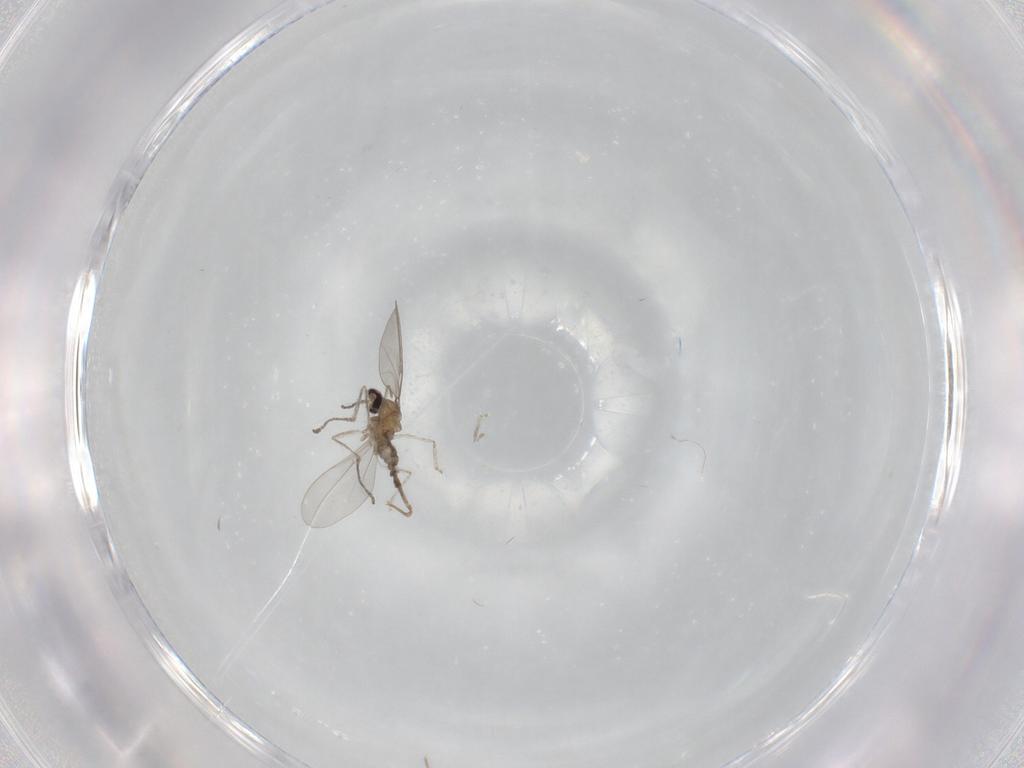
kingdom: Animalia
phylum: Arthropoda
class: Insecta
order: Diptera
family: Cecidomyiidae
